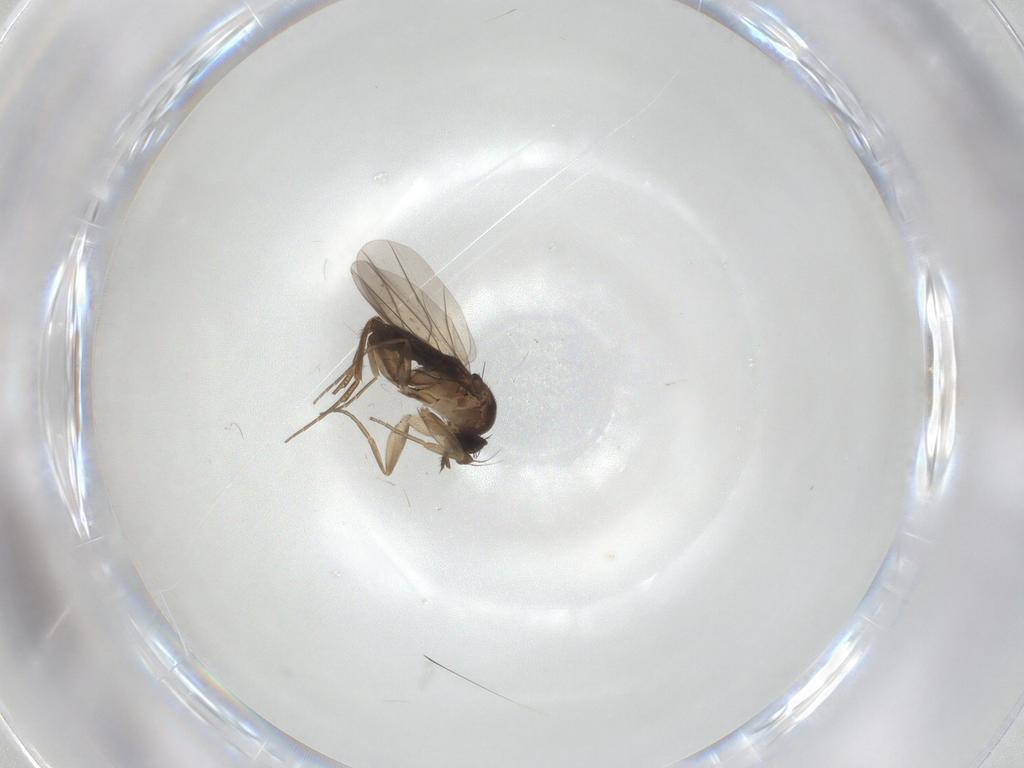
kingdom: Animalia
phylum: Arthropoda
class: Insecta
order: Diptera
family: Phoridae
